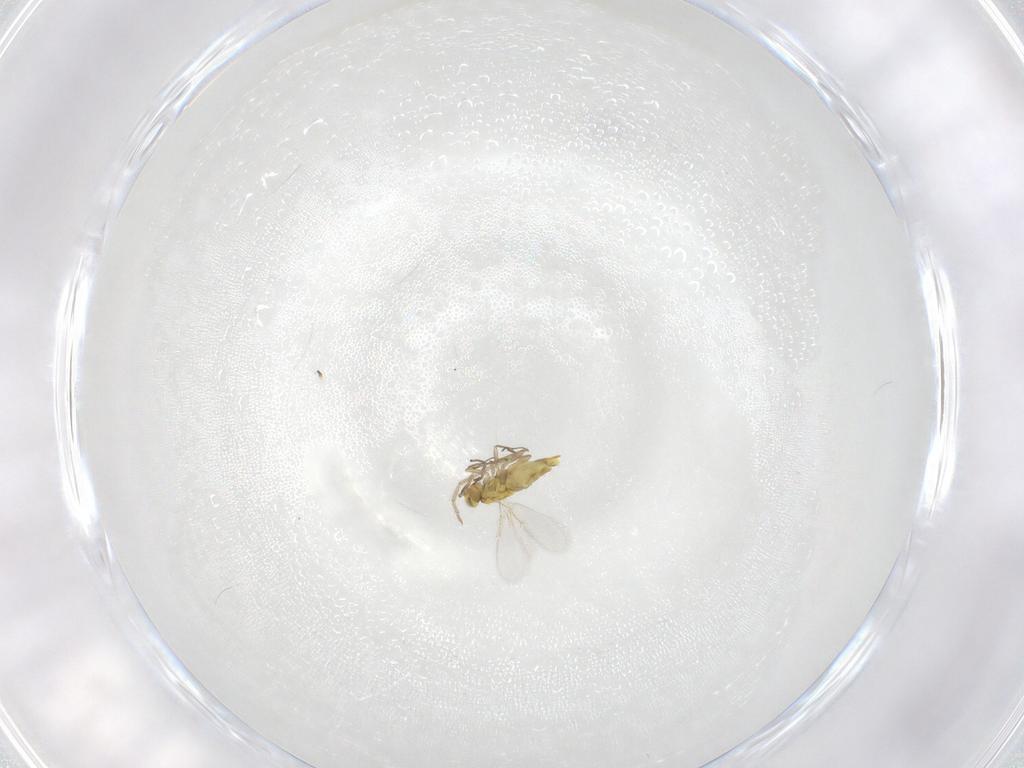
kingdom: Animalia
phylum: Arthropoda
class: Insecta
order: Hymenoptera
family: Aphelinidae
